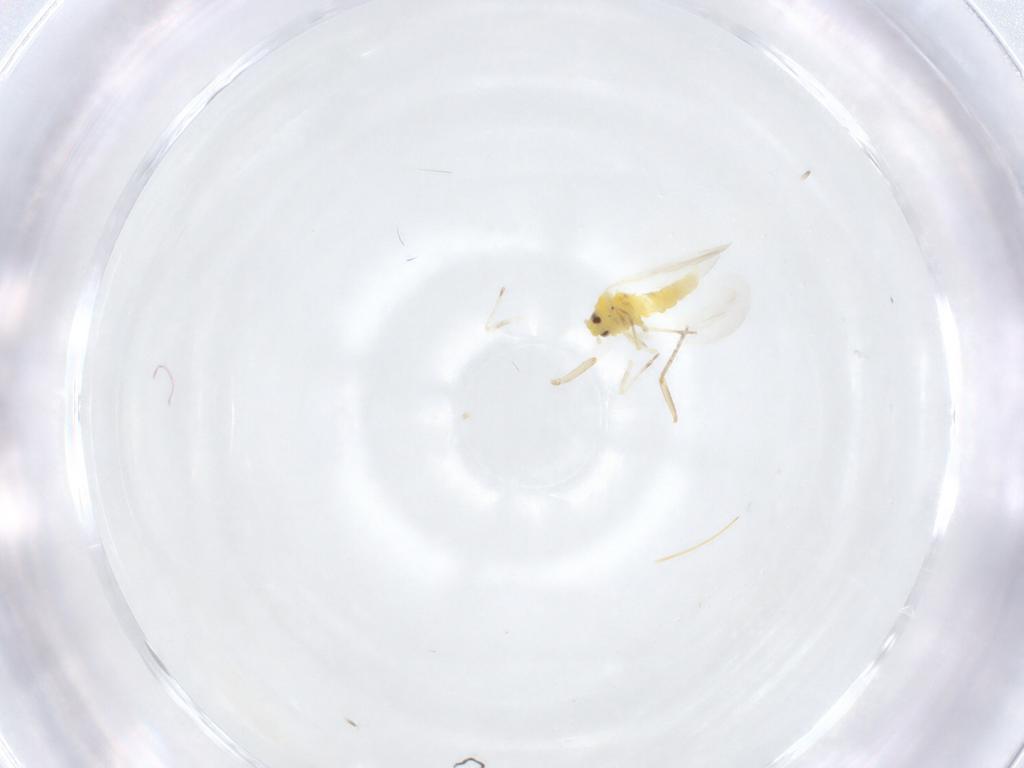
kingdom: Animalia
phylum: Arthropoda
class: Insecta
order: Hemiptera
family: Aleyrodidae
